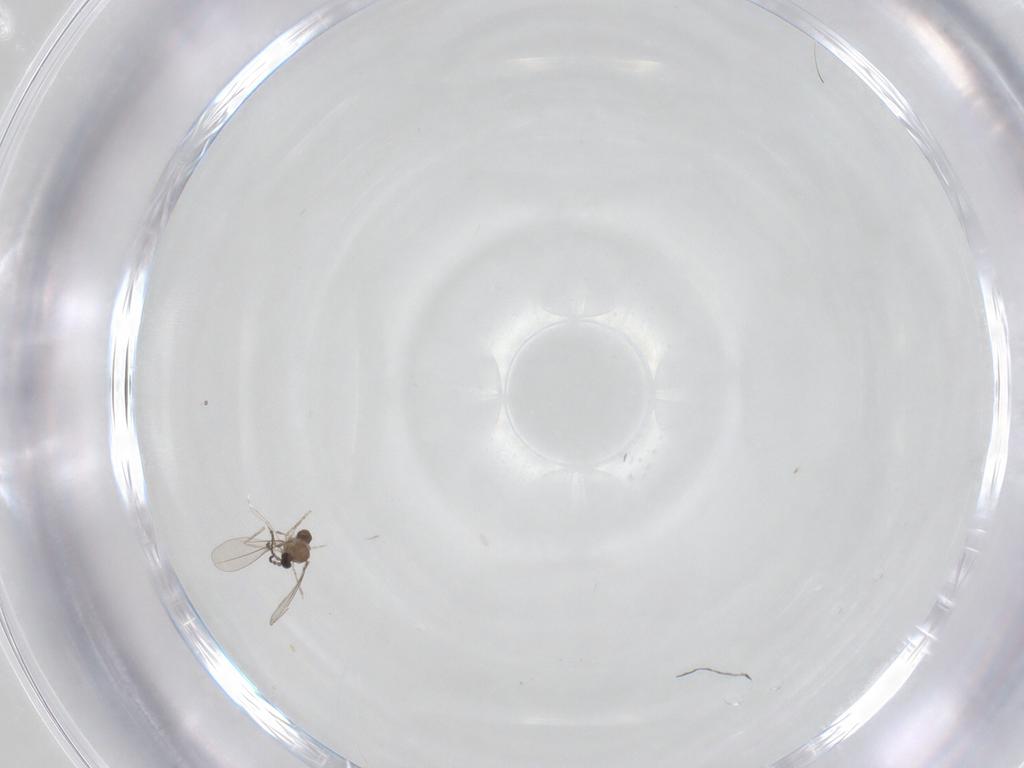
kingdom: Animalia
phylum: Arthropoda
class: Insecta
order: Diptera
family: Cecidomyiidae
